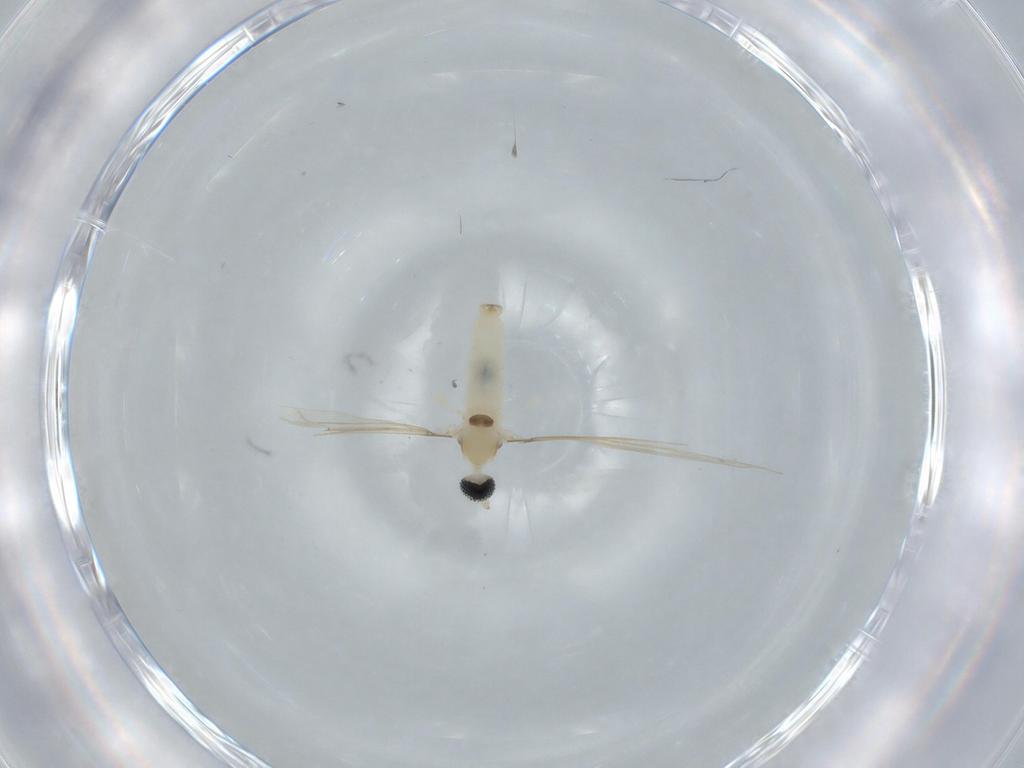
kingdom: Animalia
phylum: Arthropoda
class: Insecta
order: Diptera
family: Cecidomyiidae
